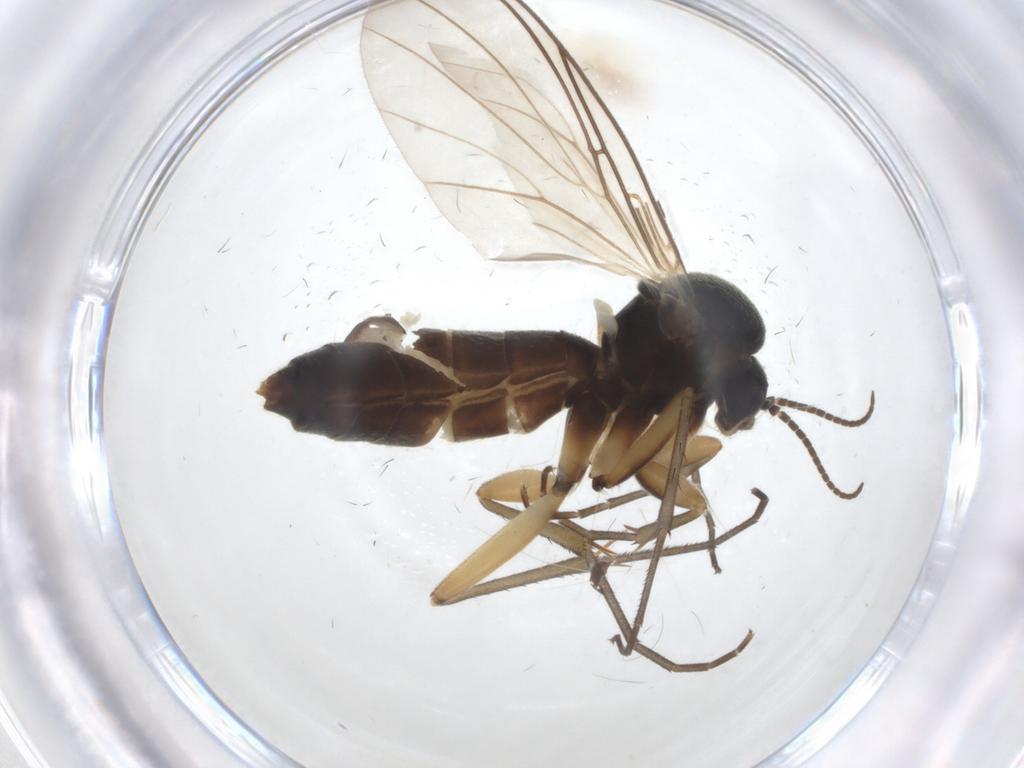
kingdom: Animalia
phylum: Arthropoda
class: Insecta
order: Diptera
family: Mycetophilidae
